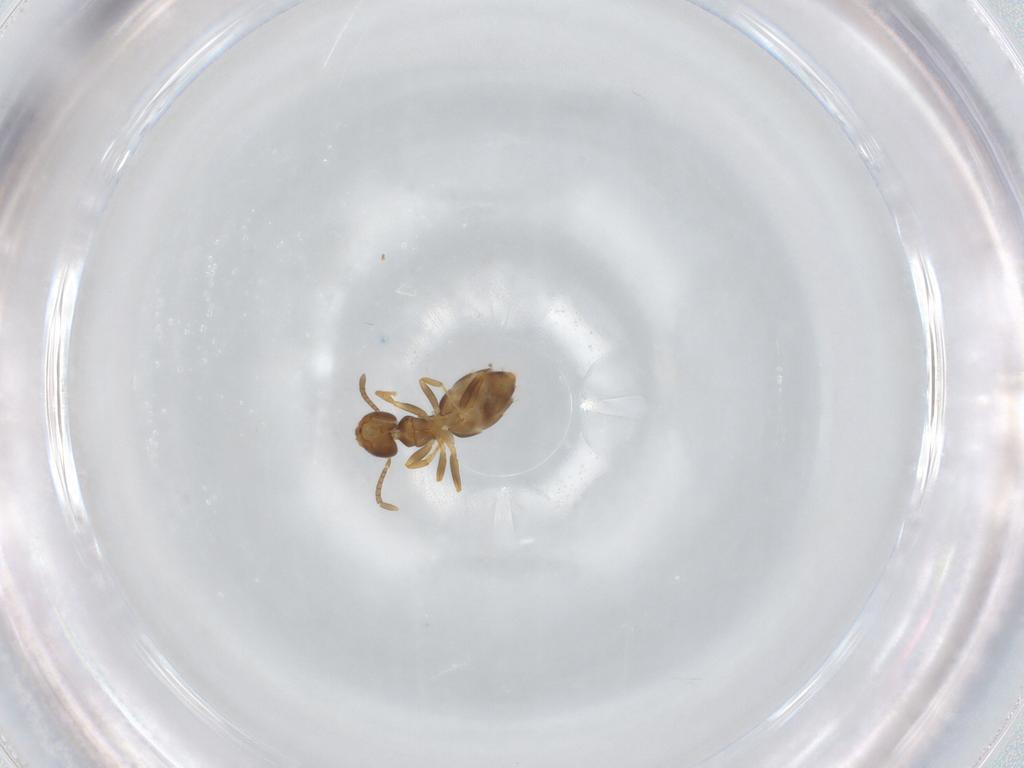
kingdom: Animalia
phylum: Arthropoda
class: Insecta
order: Hymenoptera
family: Formicidae
